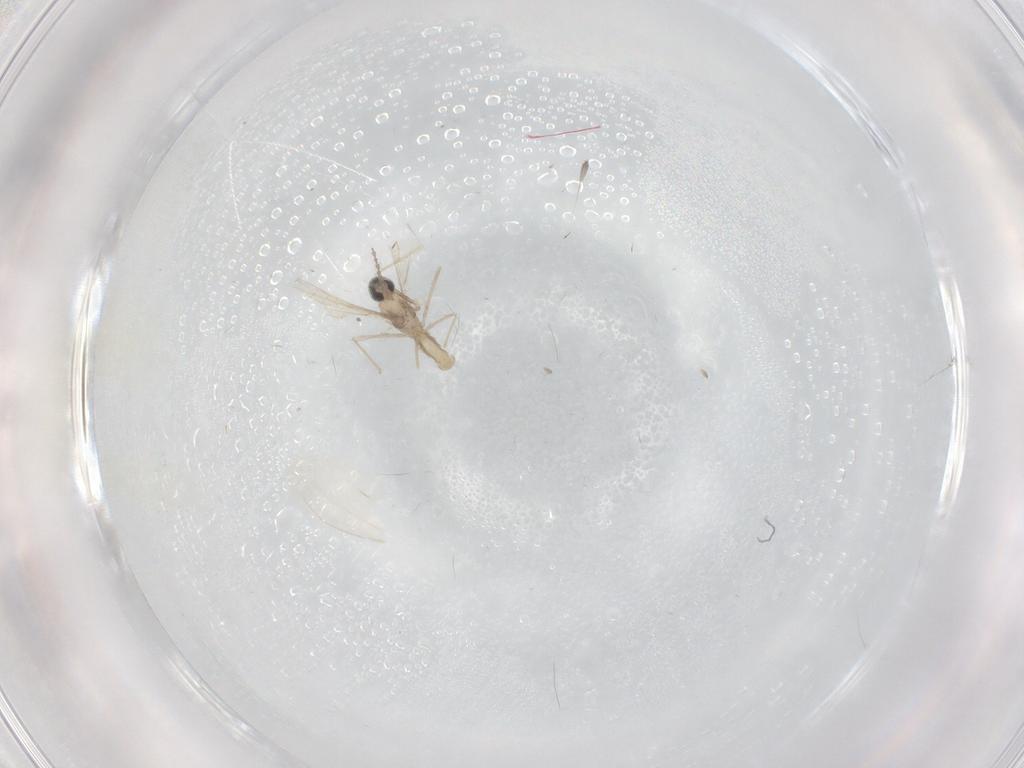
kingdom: Animalia
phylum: Arthropoda
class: Insecta
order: Diptera
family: Cecidomyiidae
